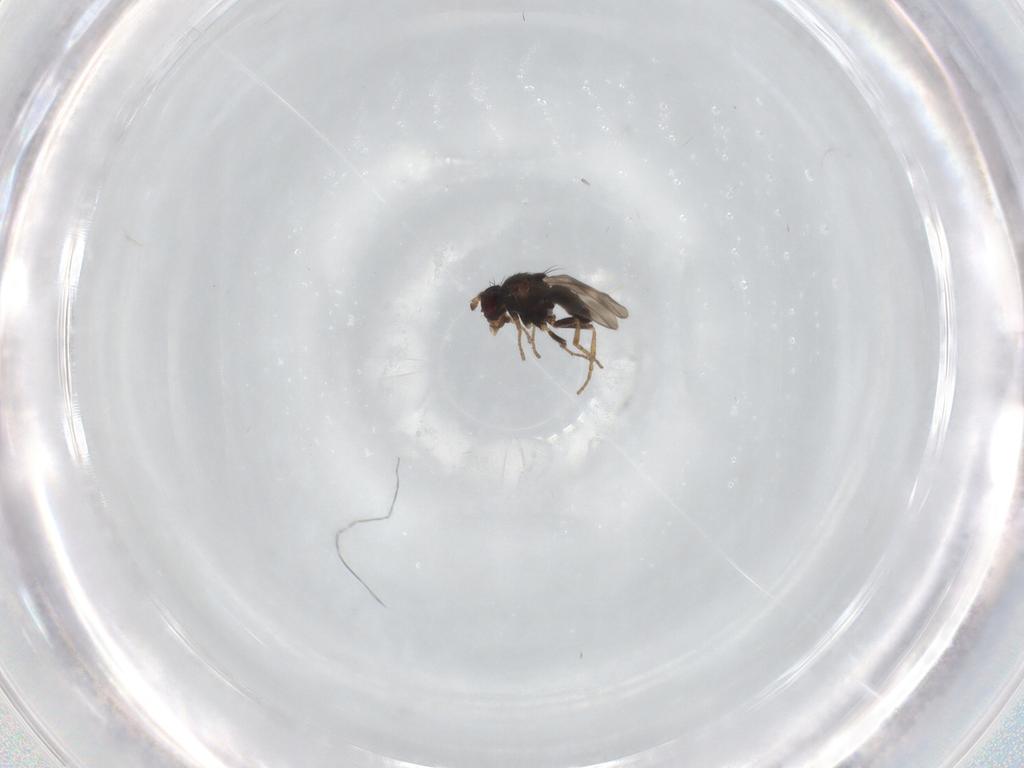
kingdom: Animalia
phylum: Arthropoda
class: Insecta
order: Diptera
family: Sphaeroceridae
